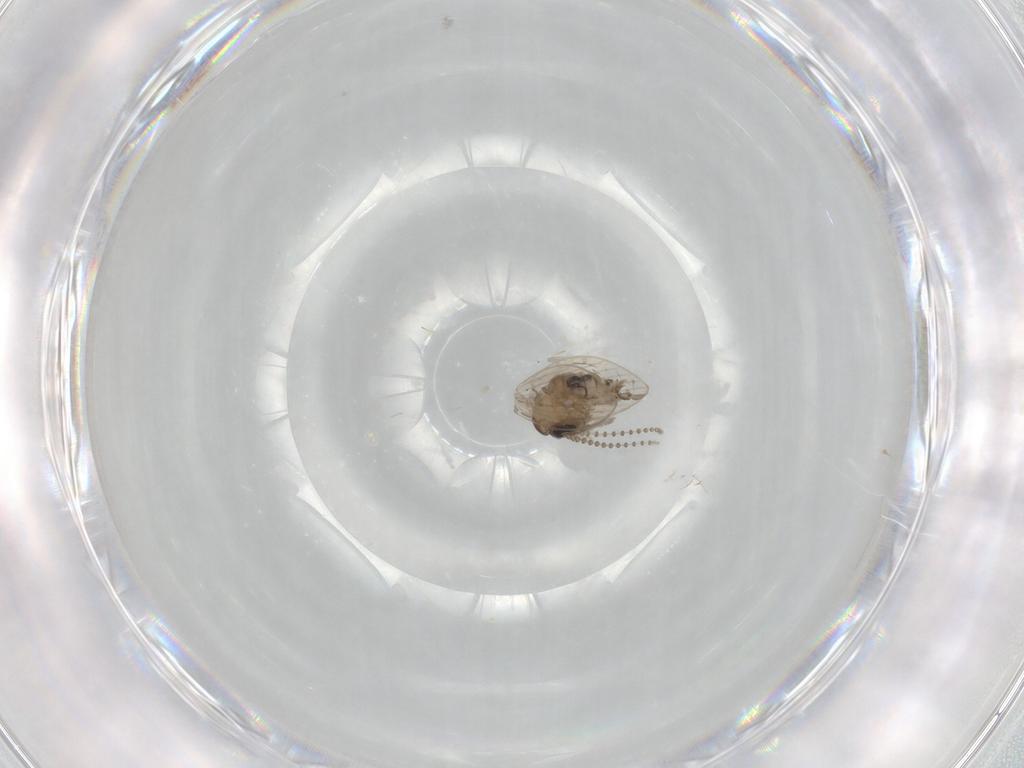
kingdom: Animalia
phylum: Arthropoda
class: Insecta
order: Diptera
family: Psychodidae
